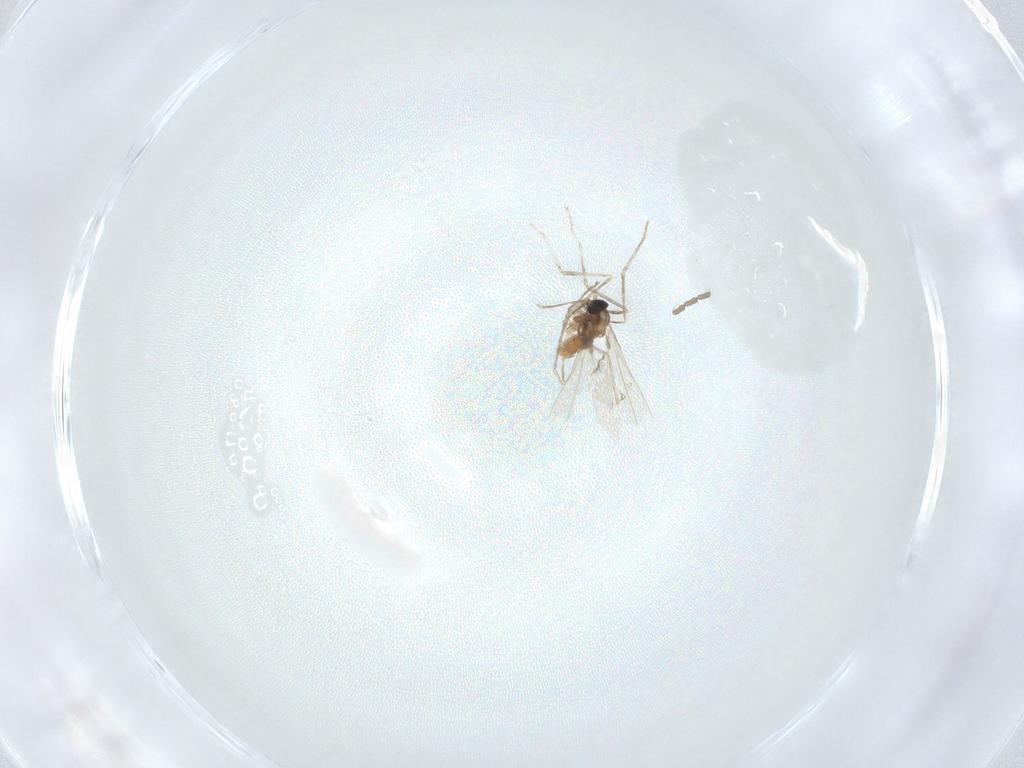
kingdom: Animalia
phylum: Arthropoda
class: Insecta
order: Diptera
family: Cecidomyiidae
